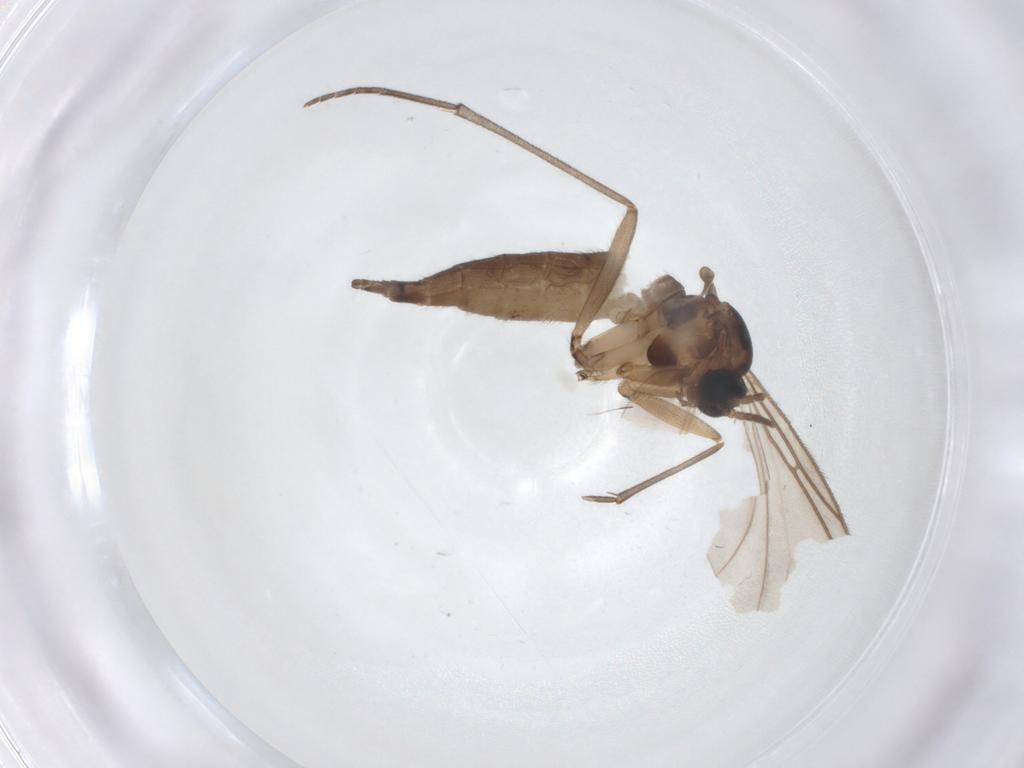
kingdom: Animalia
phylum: Arthropoda
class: Insecta
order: Diptera
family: Sciaridae
